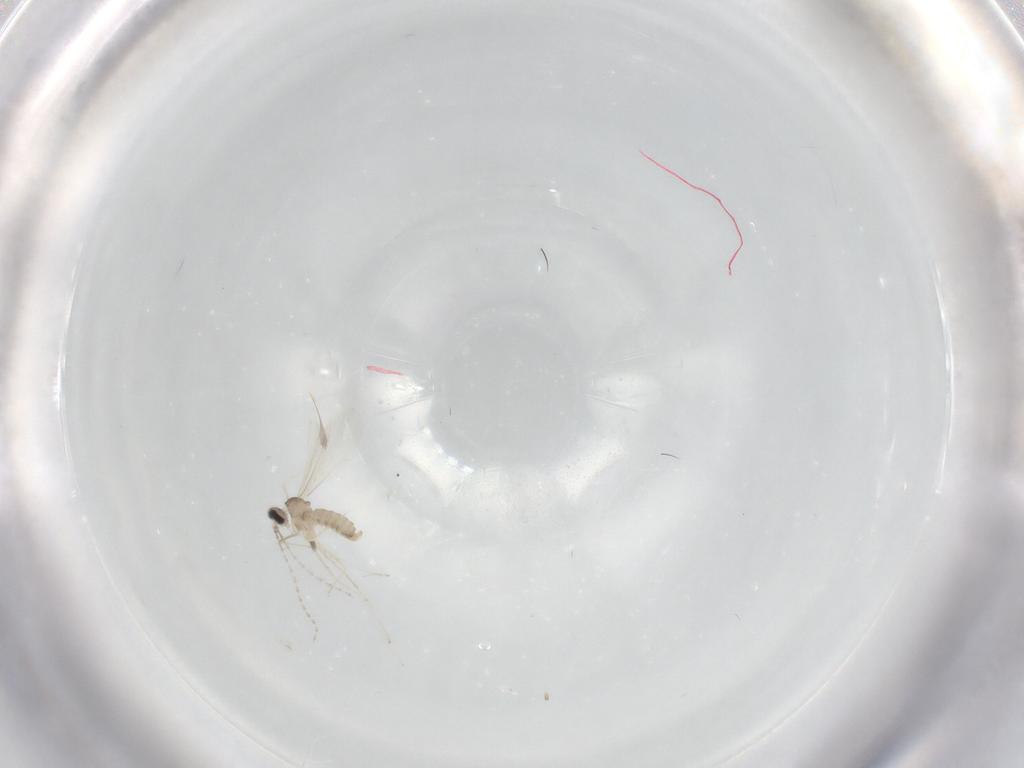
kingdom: Animalia
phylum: Arthropoda
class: Insecta
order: Diptera
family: Cecidomyiidae
